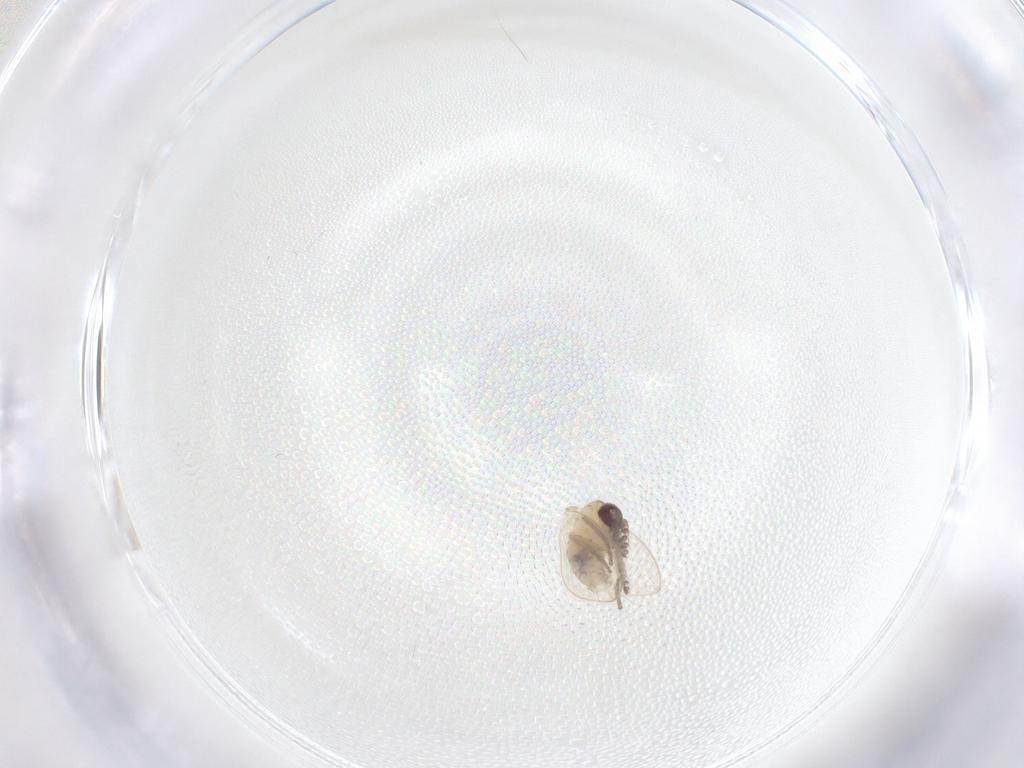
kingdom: Animalia
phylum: Arthropoda
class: Insecta
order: Diptera
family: Psychodidae
